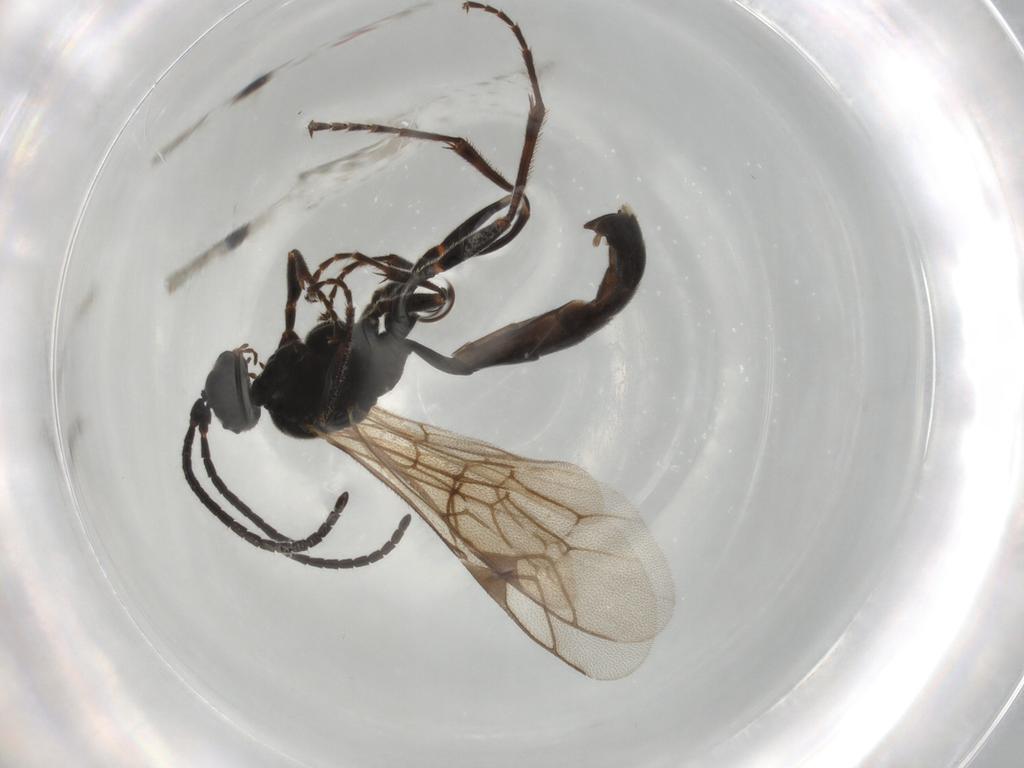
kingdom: Animalia
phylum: Arthropoda
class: Insecta
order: Hymenoptera
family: Ichneumonidae
